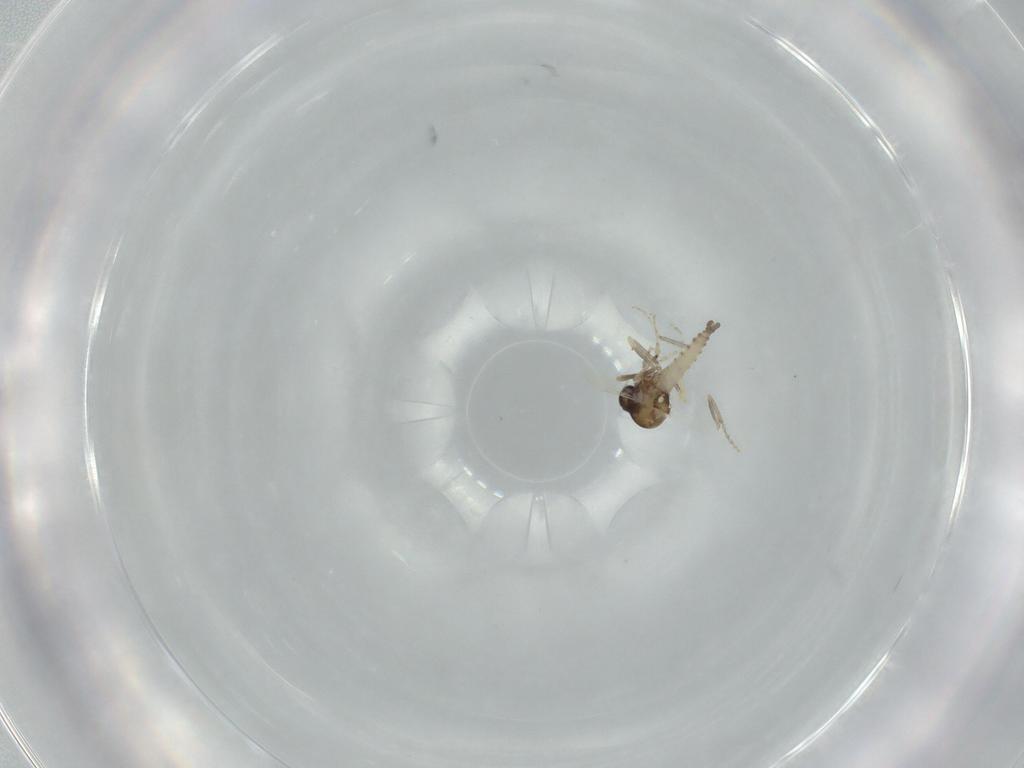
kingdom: Animalia
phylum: Arthropoda
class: Insecta
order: Diptera
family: Ceratopogonidae
